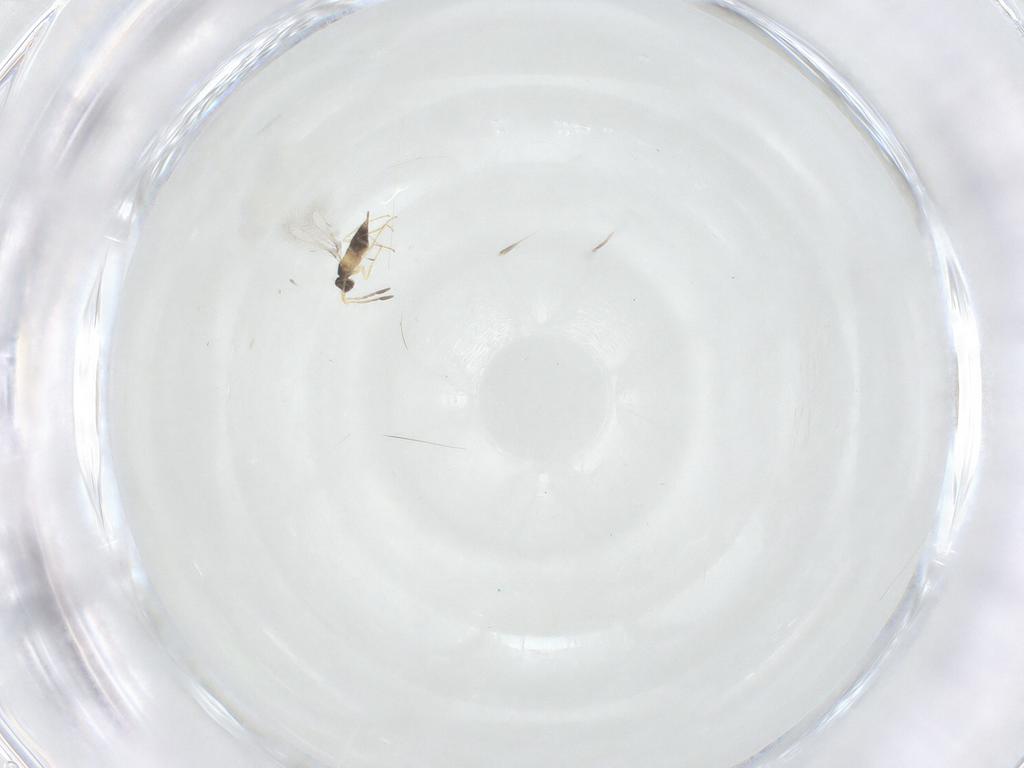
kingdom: Animalia
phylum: Arthropoda
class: Insecta
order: Hymenoptera
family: Mymaridae
